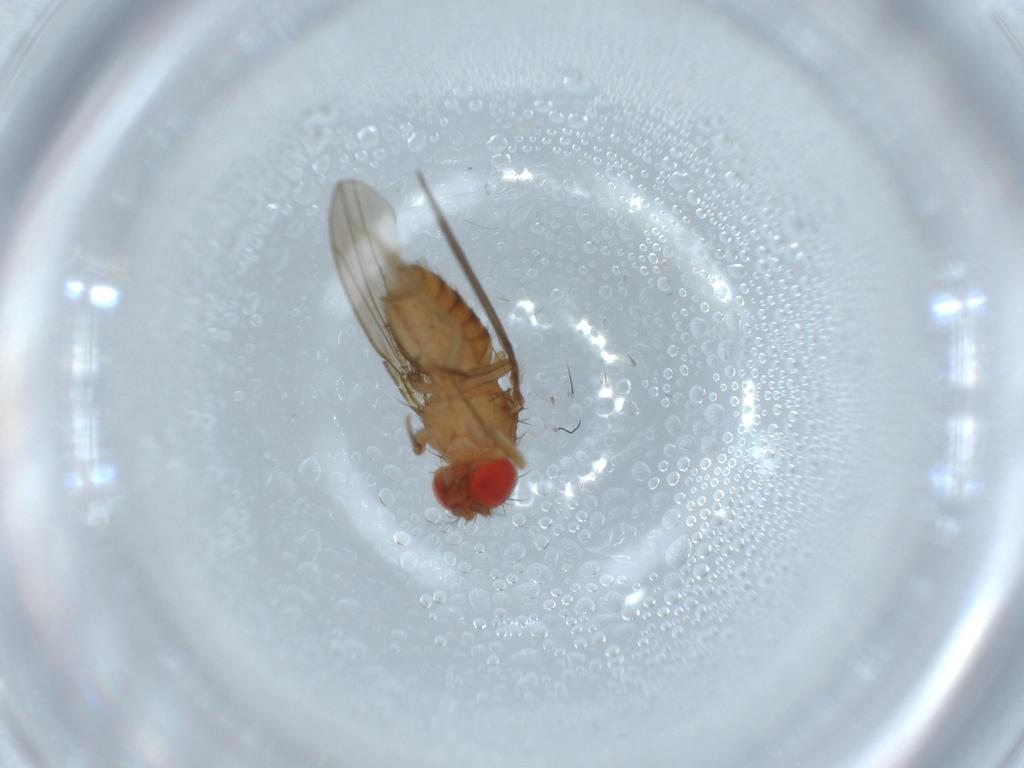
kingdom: Animalia
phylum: Arthropoda
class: Insecta
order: Diptera
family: Drosophilidae
